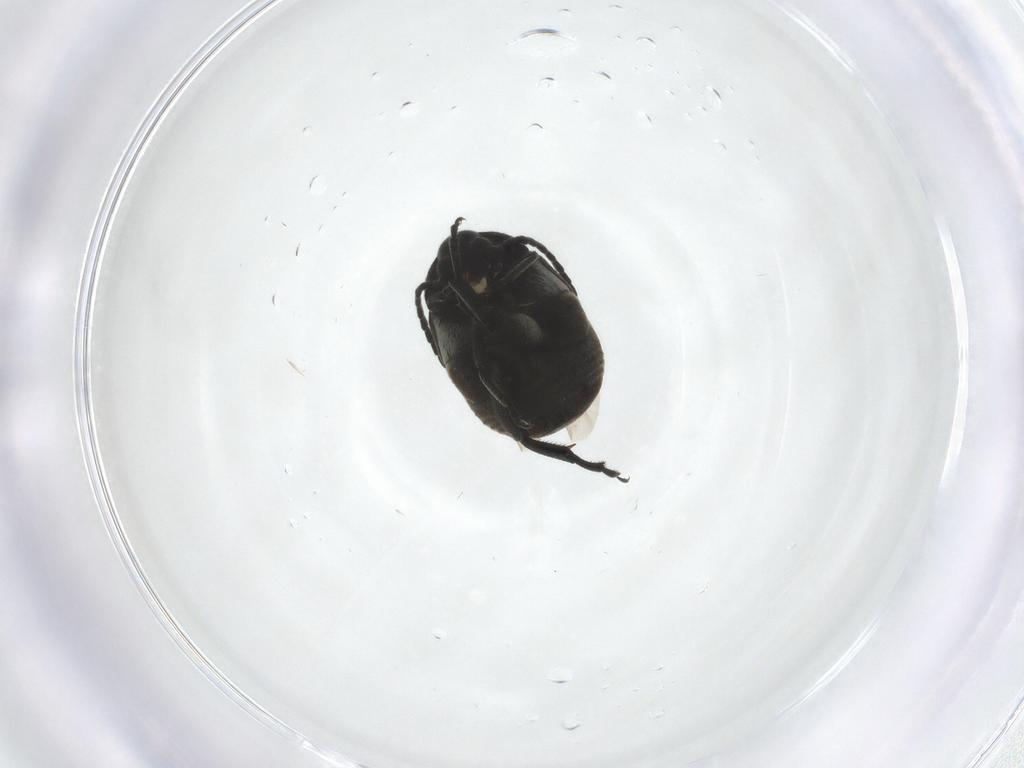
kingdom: Animalia
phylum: Arthropoda
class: Insecta
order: Coleoptera
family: Chrysomelidae
